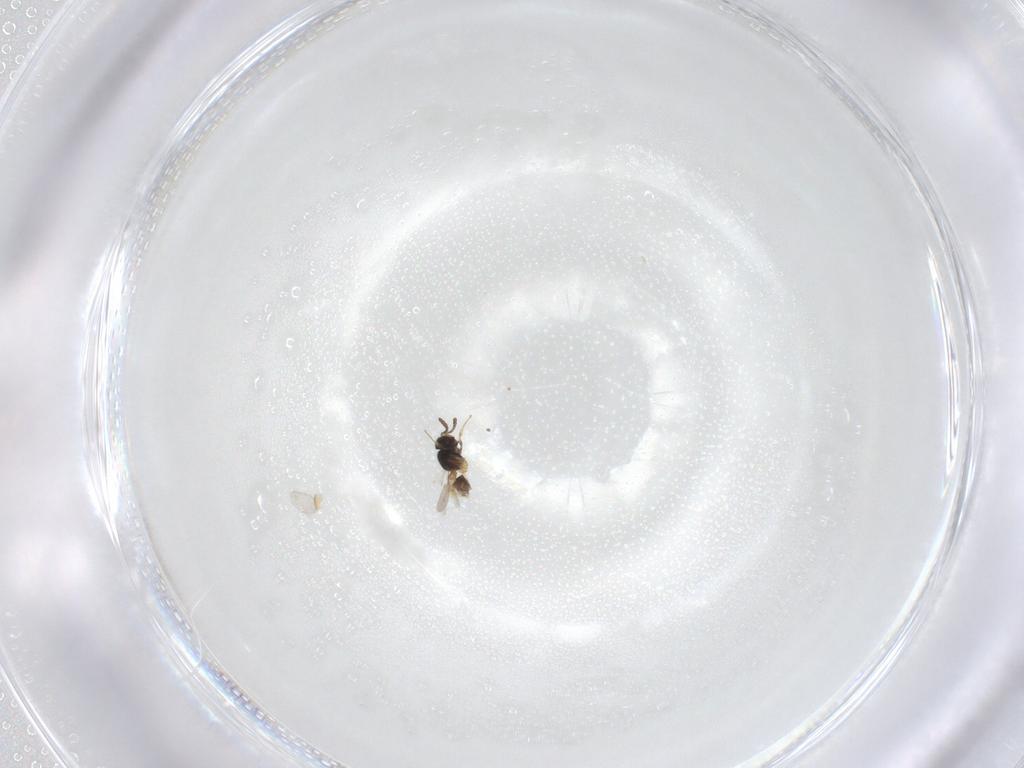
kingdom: Animalia
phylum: Arthropoda
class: Insecta
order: Hymenoptera
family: Scelionidae
